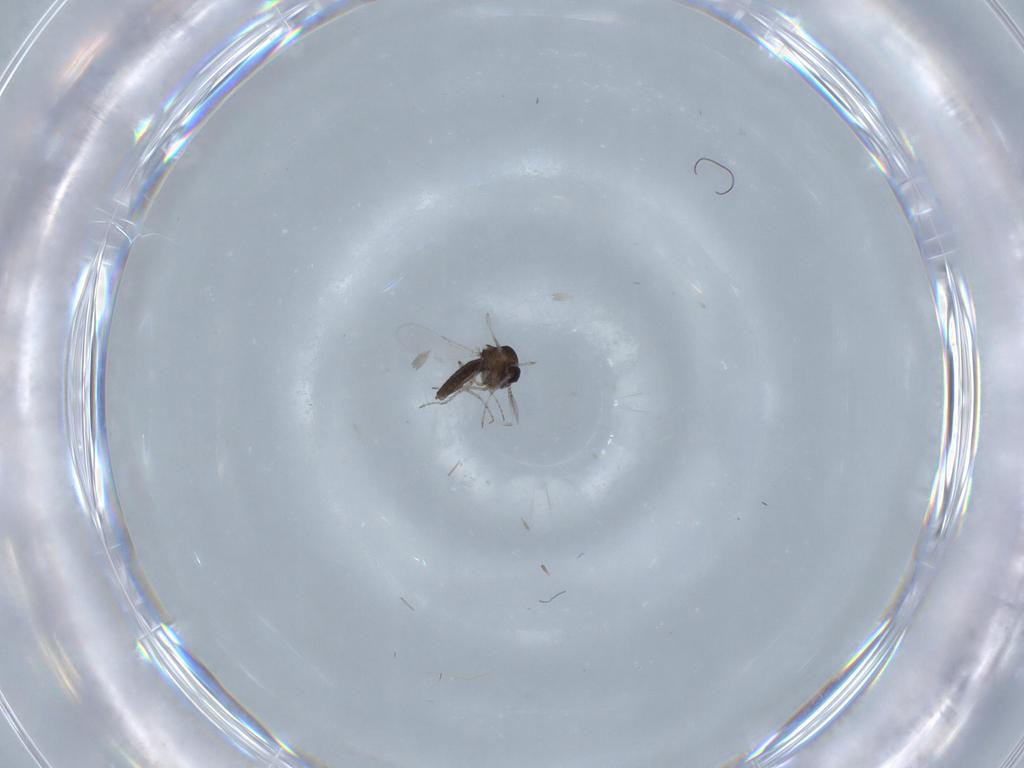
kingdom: Animalia
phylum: Arthropoda
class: Insecta
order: Diptera
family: Ceratopogonidae
